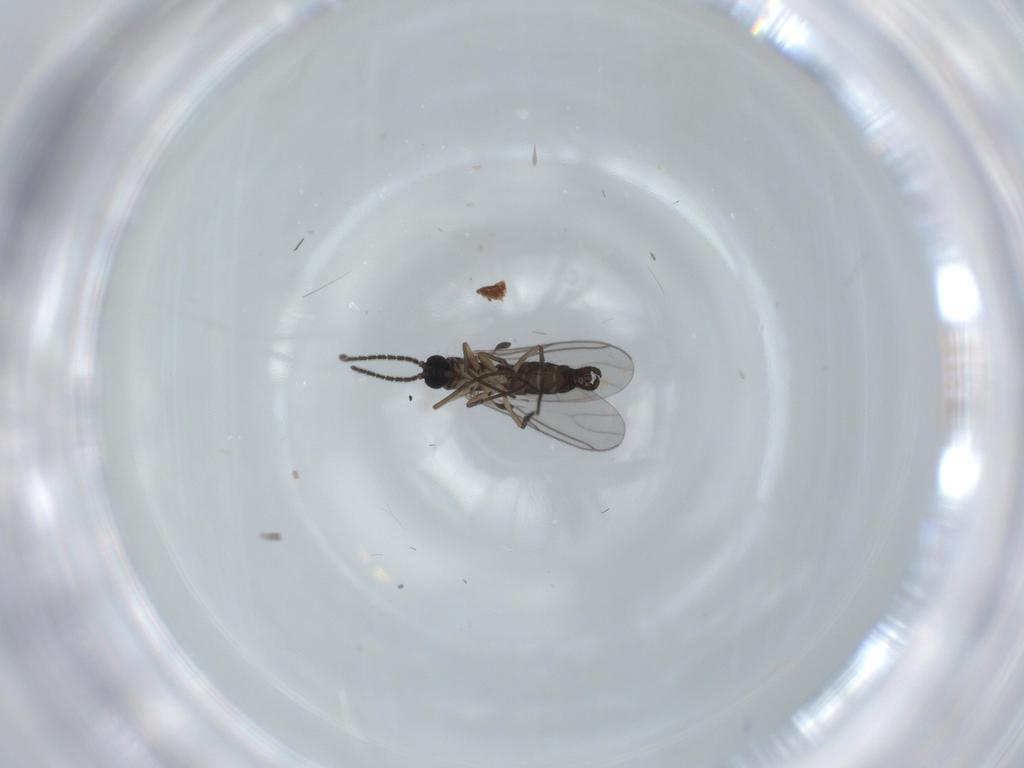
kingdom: Animalia
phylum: Arthropoda
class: Insecta
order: Diptera
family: Sciaridae
